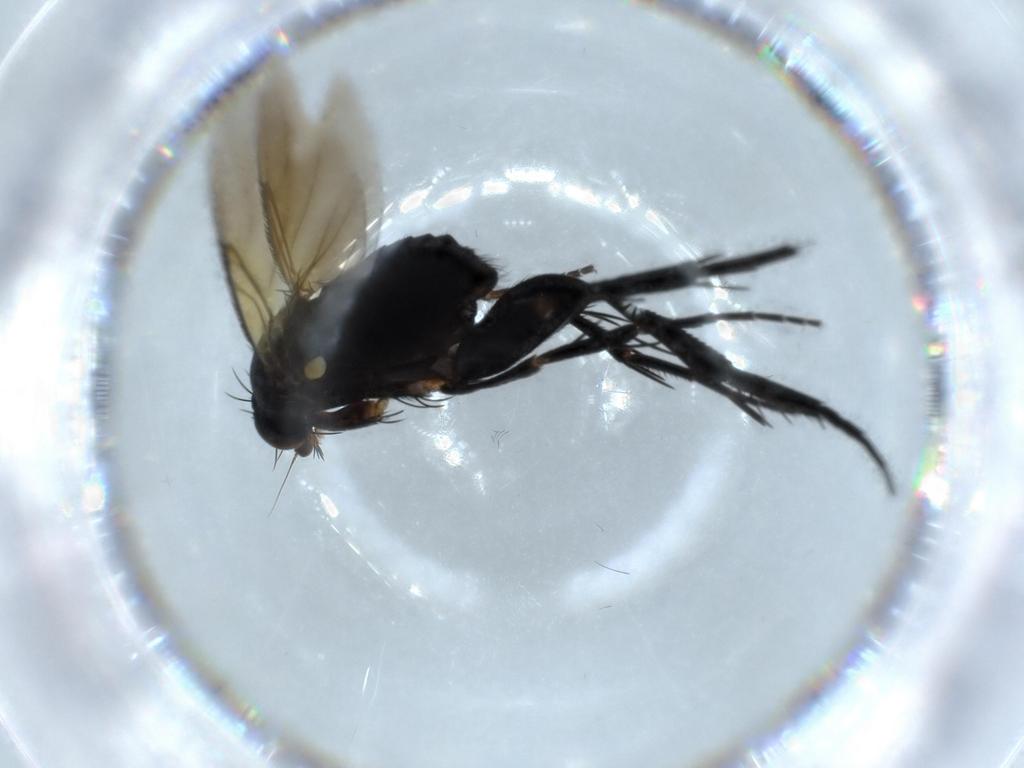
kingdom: Animalia
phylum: Arthropoda
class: Insecta
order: Diptera
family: Phoridae
